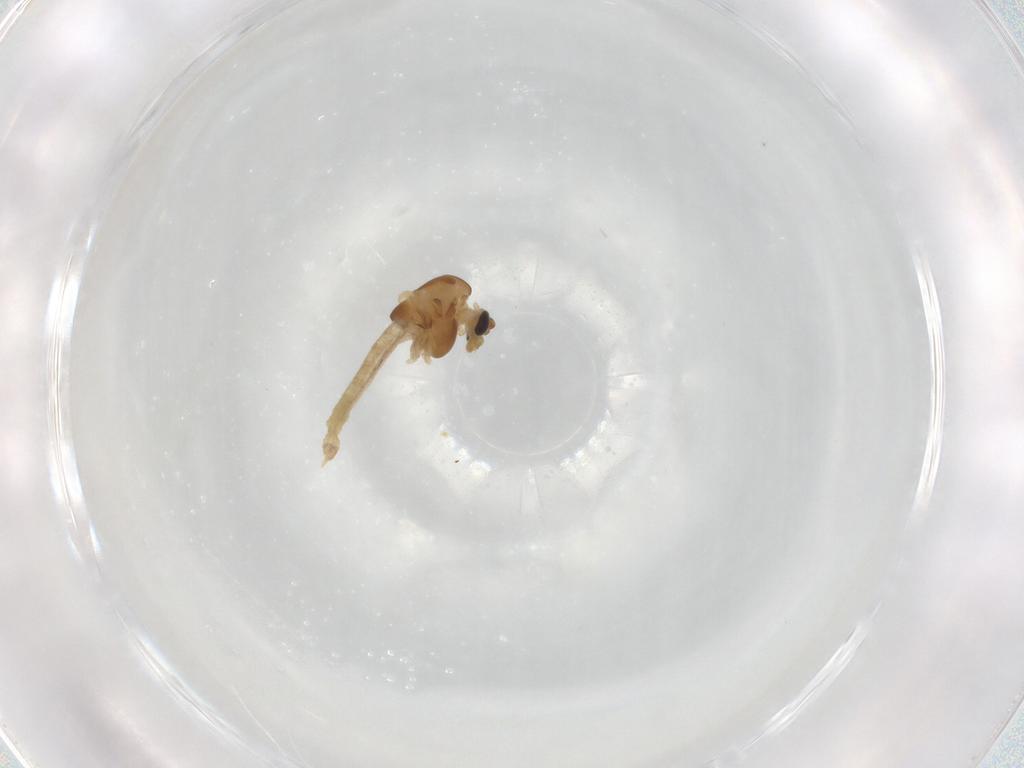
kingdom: Animalia
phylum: Arthropoda
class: Insecta
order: Diptera
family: Chironomidae
